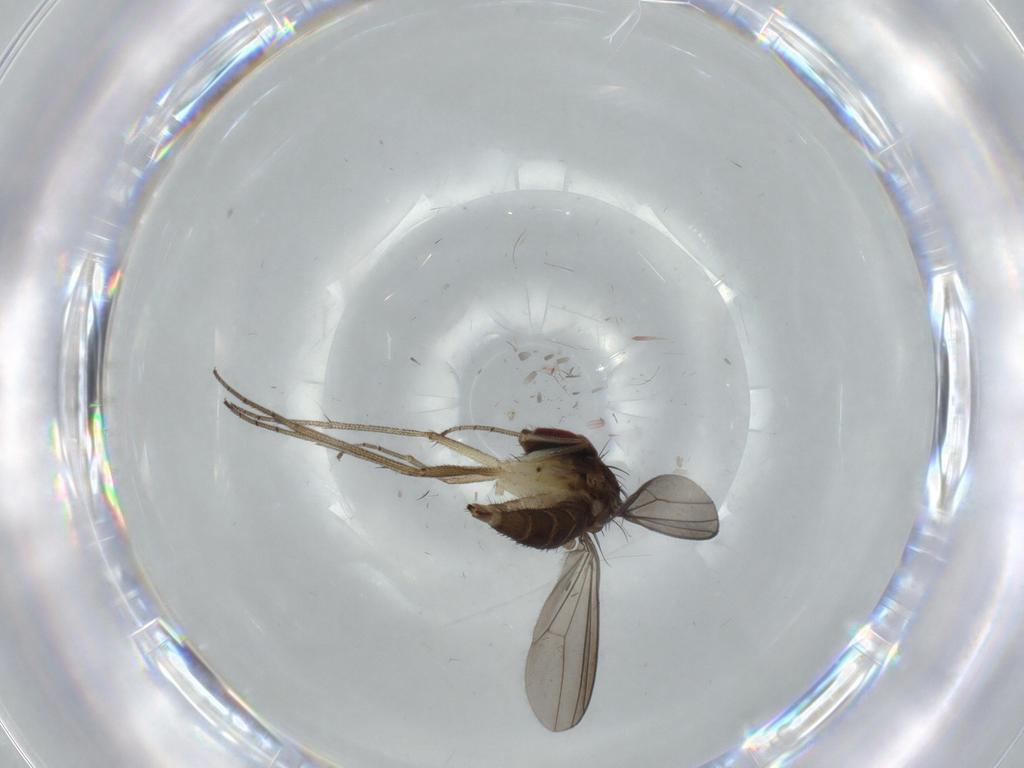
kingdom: Animalia
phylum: Arthropoda
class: Insecta
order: Diptera
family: Dolichopodidae
